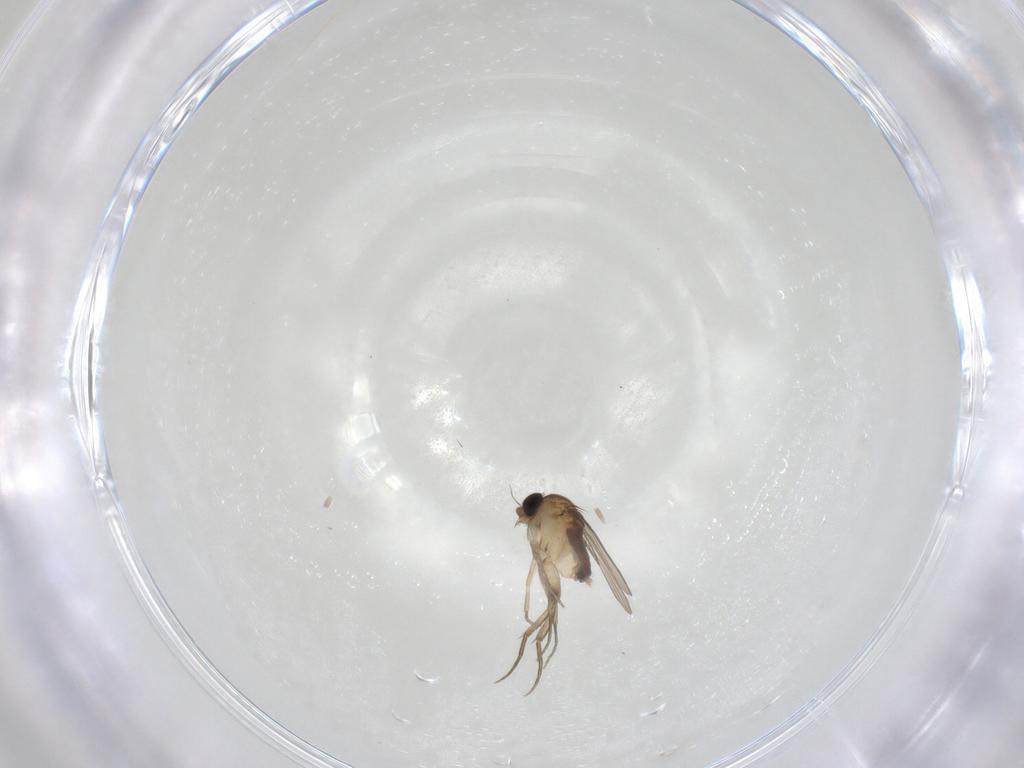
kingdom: Animalia
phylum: Arthropoda
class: Insecta
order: Diptera
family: Phoridae
